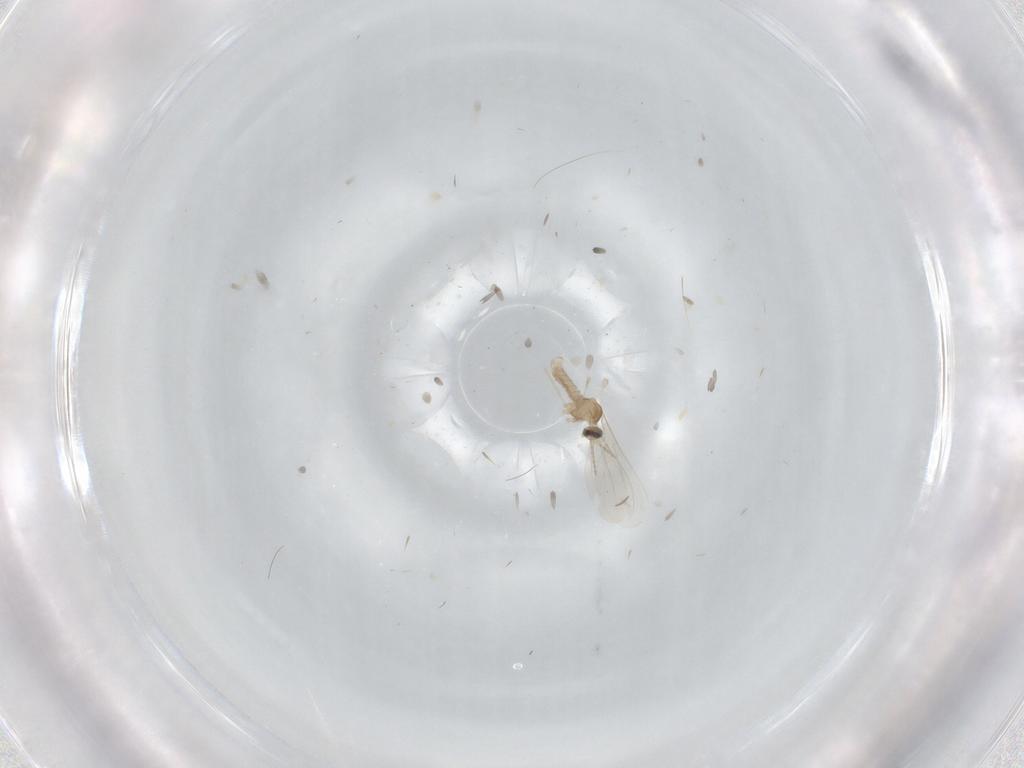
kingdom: Animalia
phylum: Arthropoda
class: Insecta
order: Diptera
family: Cecidomyiidae
